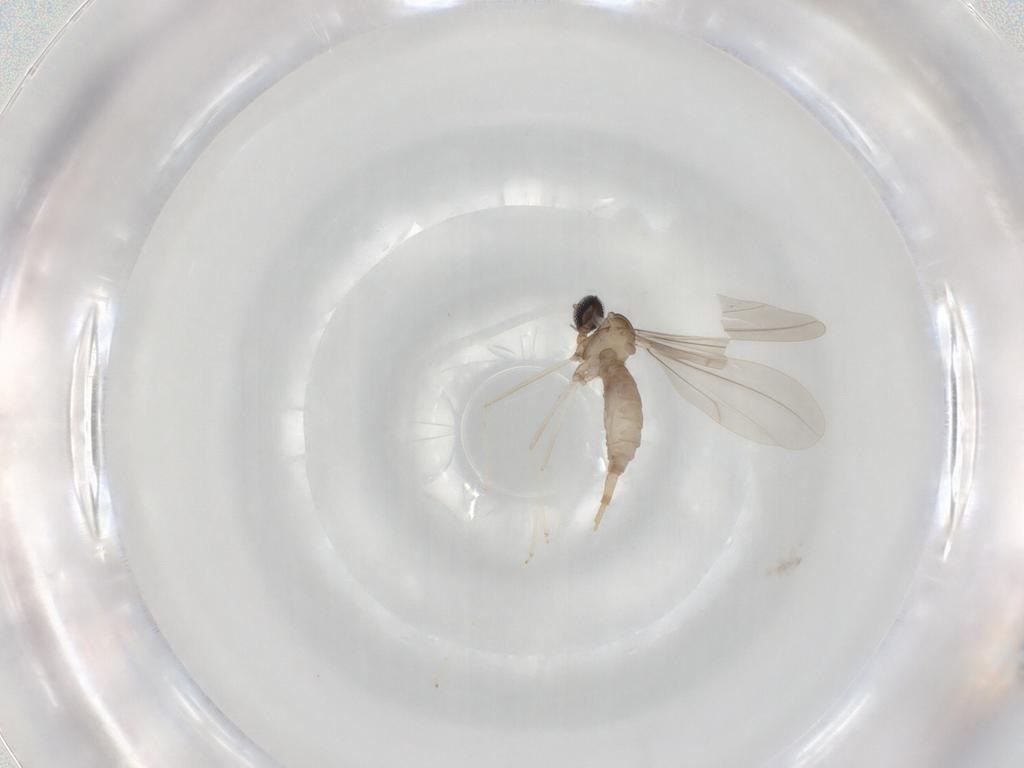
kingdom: Animalia
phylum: Arthropoda
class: Insecta
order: Diptera
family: Cecidomyiidae
